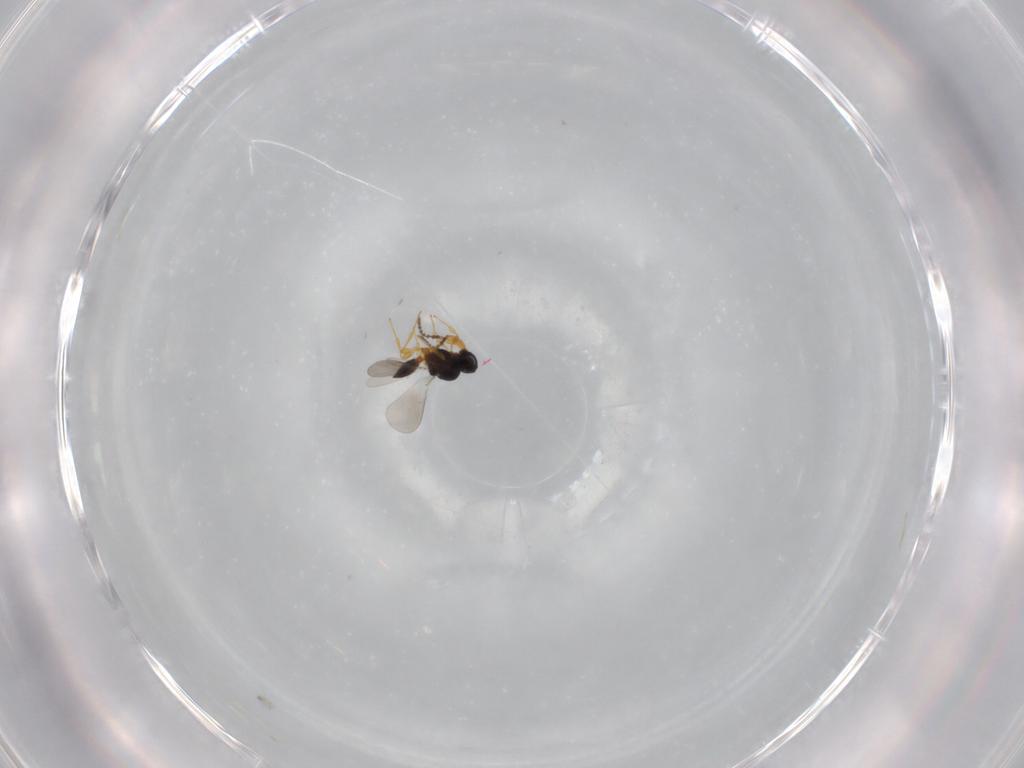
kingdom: Animalia
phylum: Arthropoda
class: Insecta
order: Hymenoptera
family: Platygastridae
